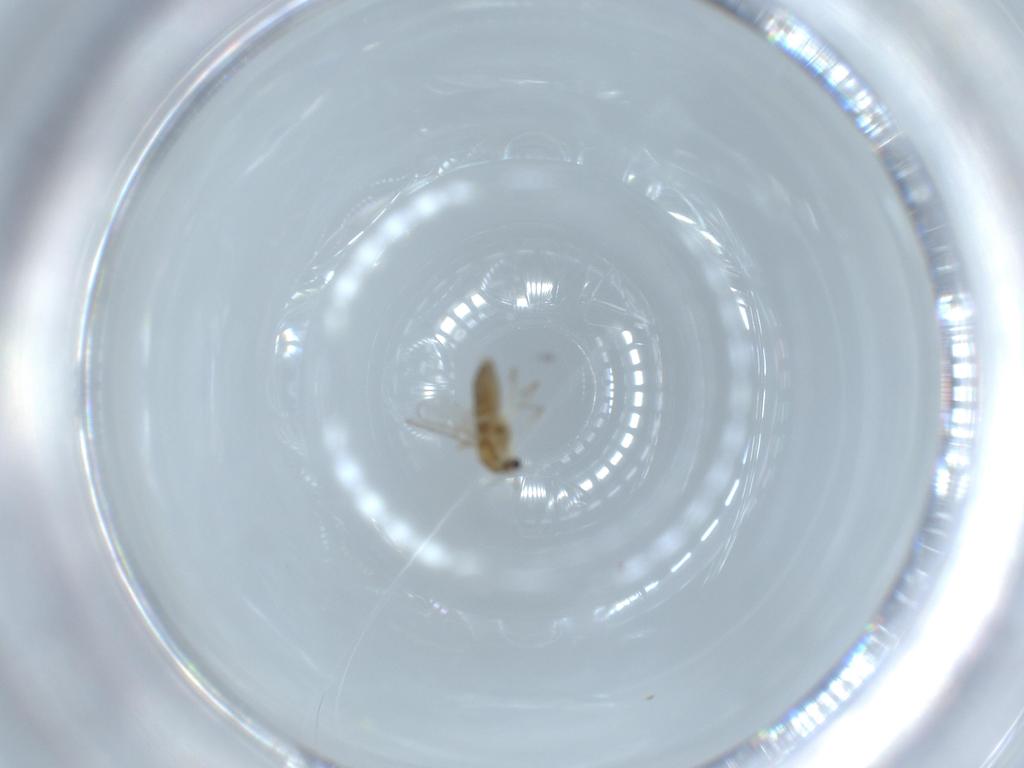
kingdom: Animalia
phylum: Arthropoda
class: Insecta
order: Diptera
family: Chironomidae
